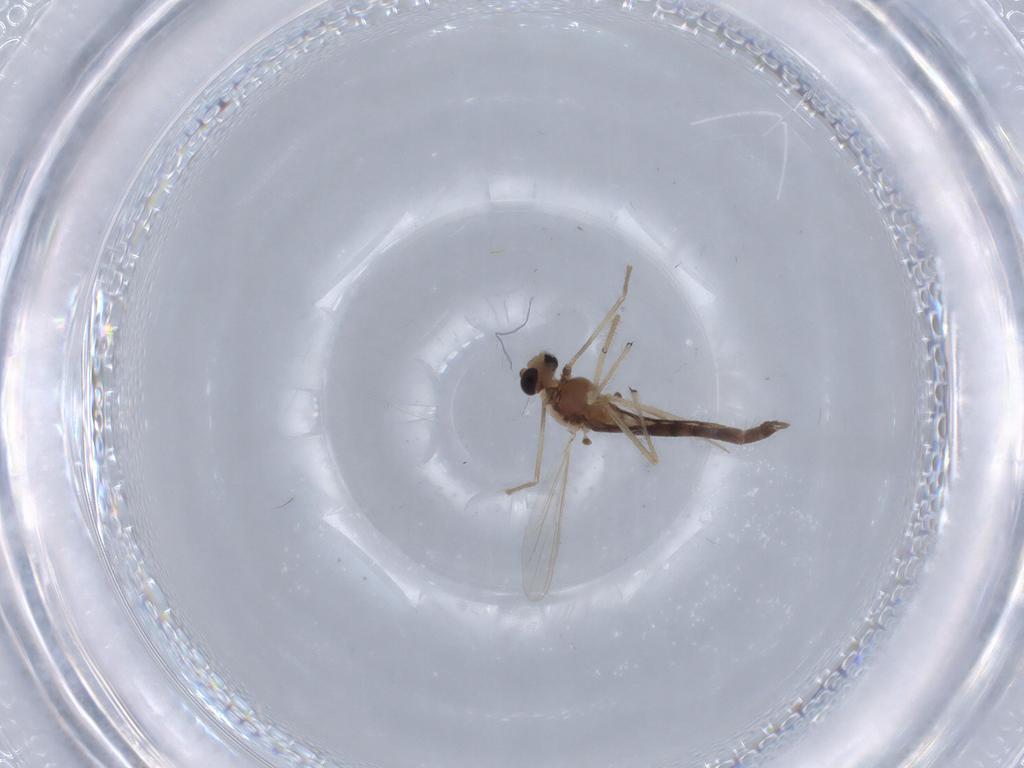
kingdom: Animalia
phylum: Arthropoda
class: Insecta
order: Diptera
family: Chironomidae
